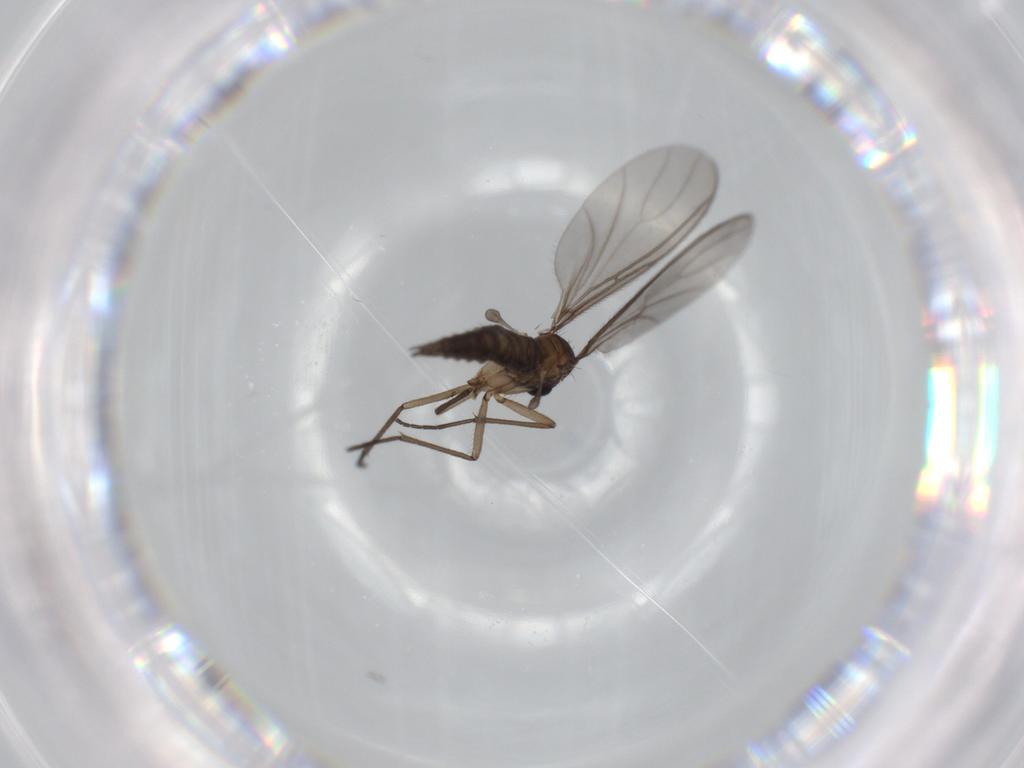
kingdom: Animalia
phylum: Arthropoda
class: Insecta
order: Diptera
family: Sciaridae
